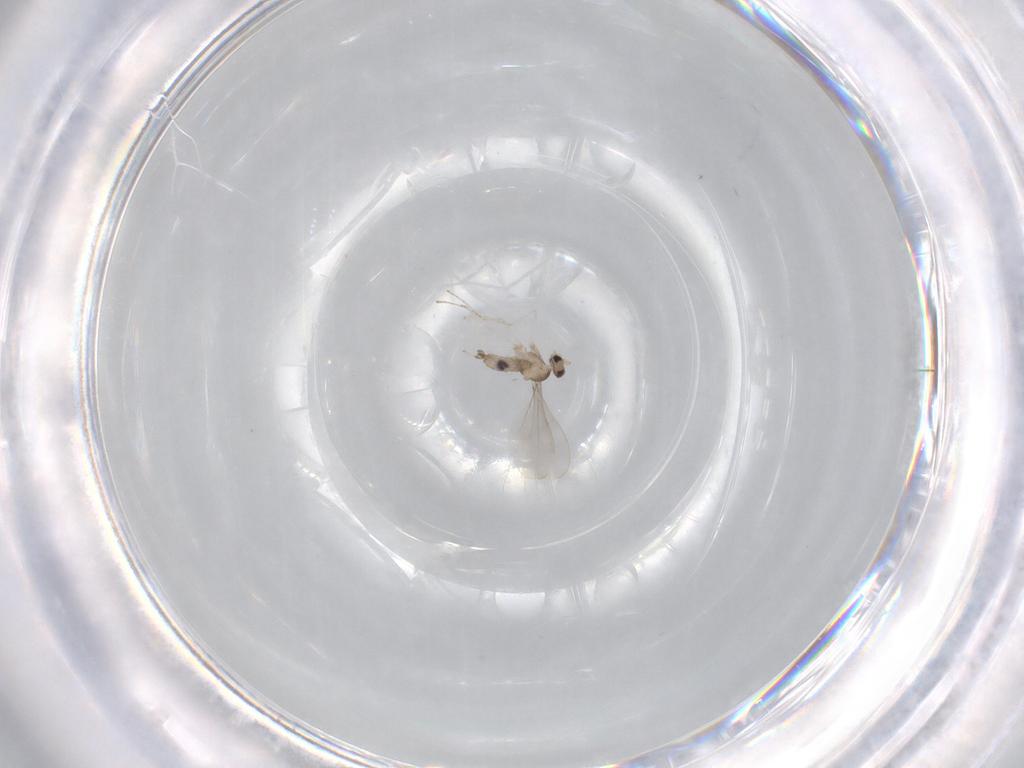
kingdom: Animalia
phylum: Arthropoda
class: Insecta
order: Diptera
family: Cecidomyiidae
